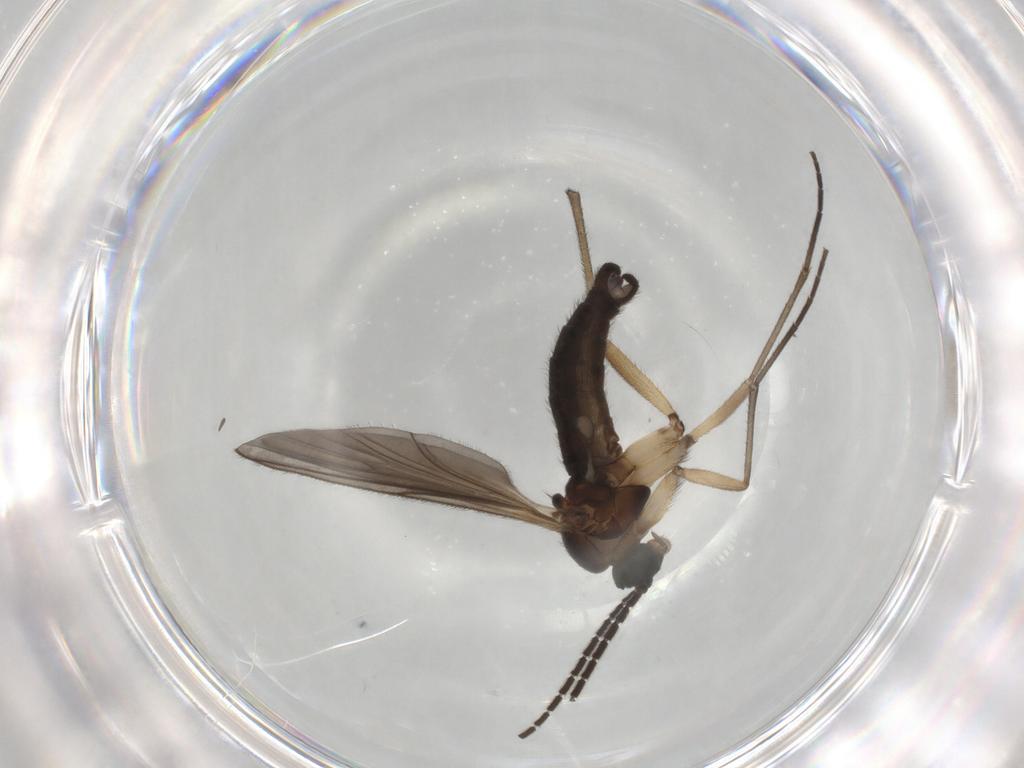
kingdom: Animalia
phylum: Arthropoda
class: Insecta
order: Diptera
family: Sciaridae
